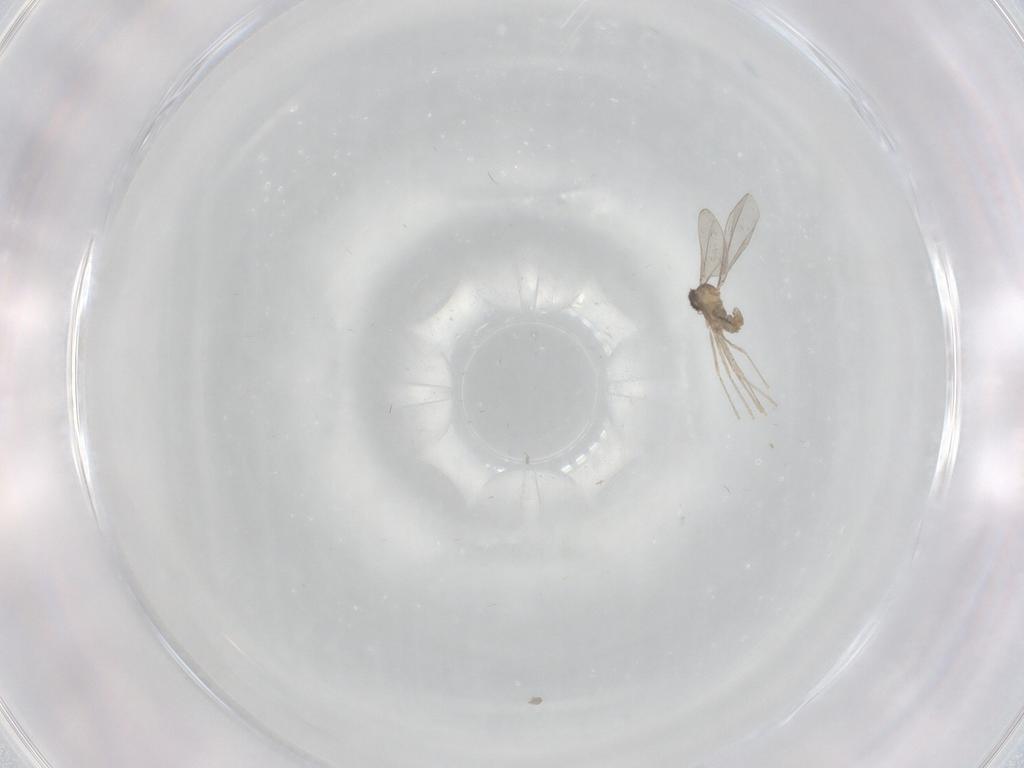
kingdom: Animalia
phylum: Arthropoda
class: Insecta
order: Diptera
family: Cecidomyiidae
